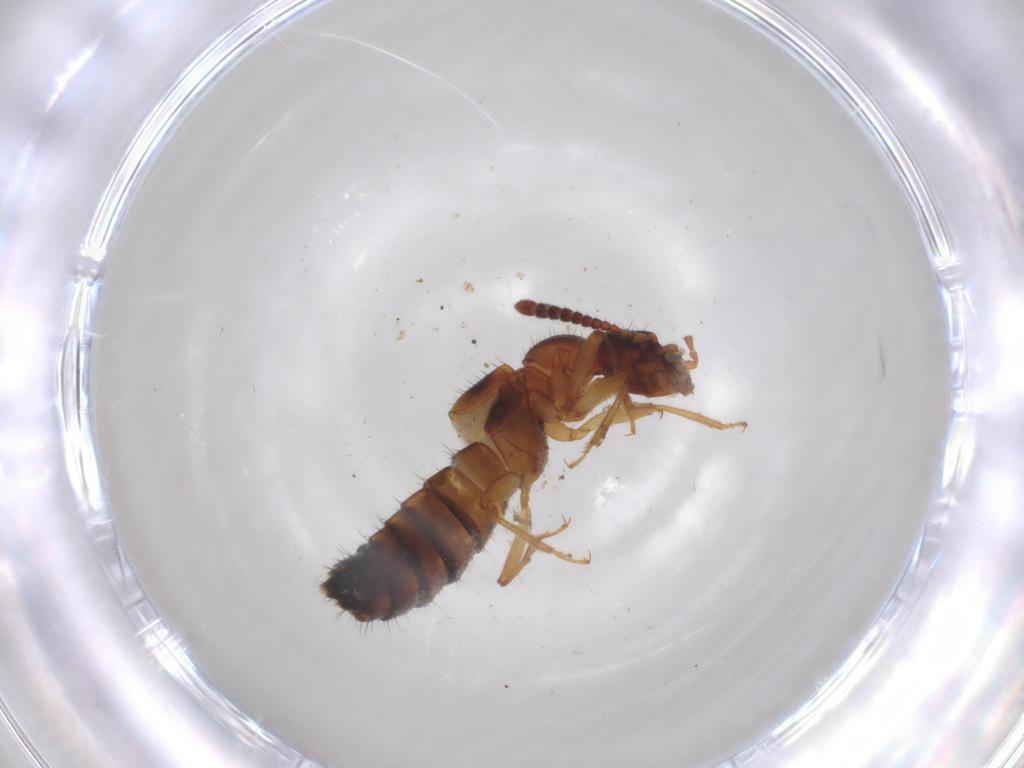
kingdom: Animalia
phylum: Arthropoda
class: Insecta
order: Coleoptera
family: Staphylinidae
